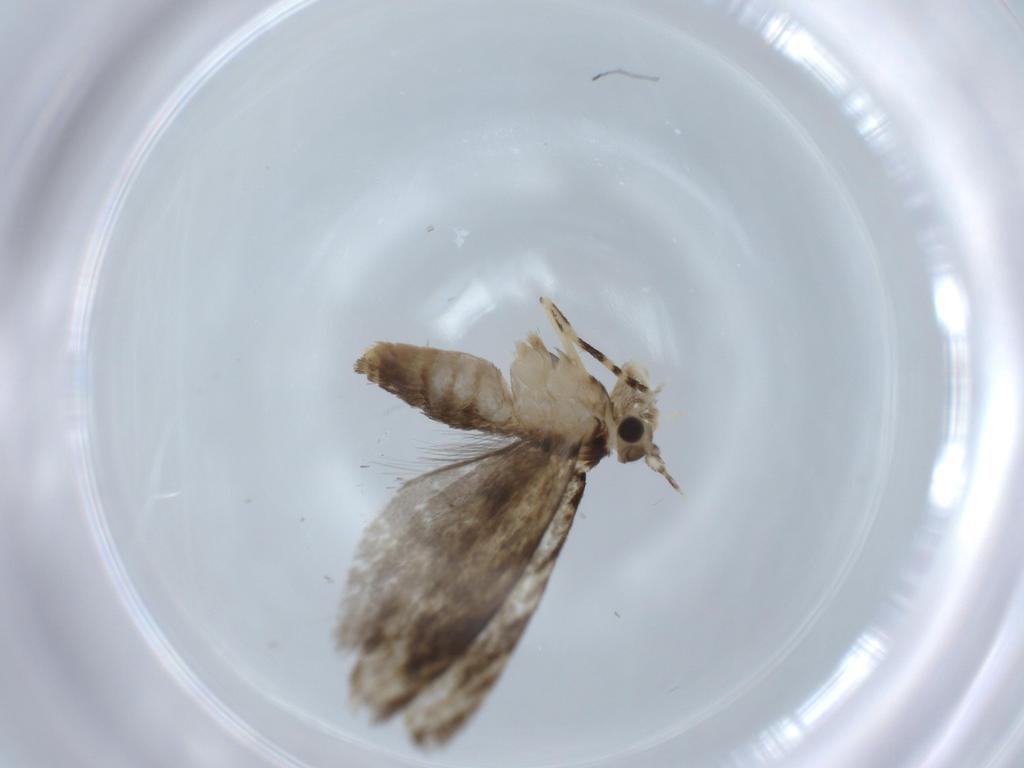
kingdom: Animalia
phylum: Arthropoda
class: Insecta
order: Lepidoptera
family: Tineidae
